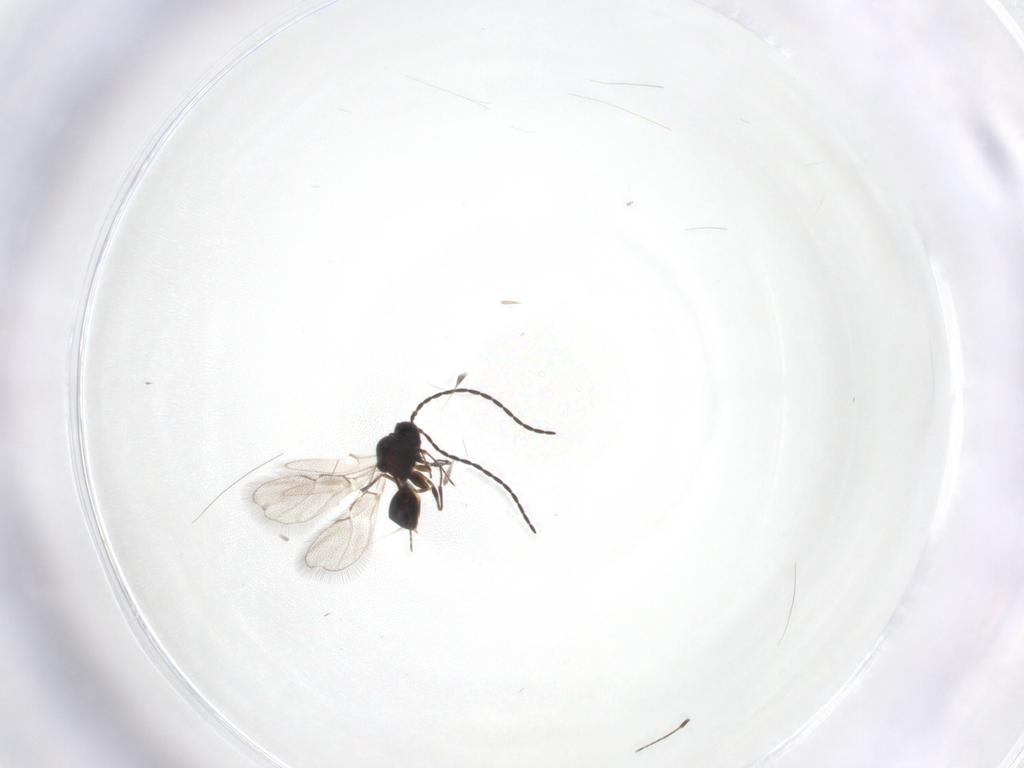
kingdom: Animalia
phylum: Arthropoda
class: Insecta
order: Hymenoptera
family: Figitidae
